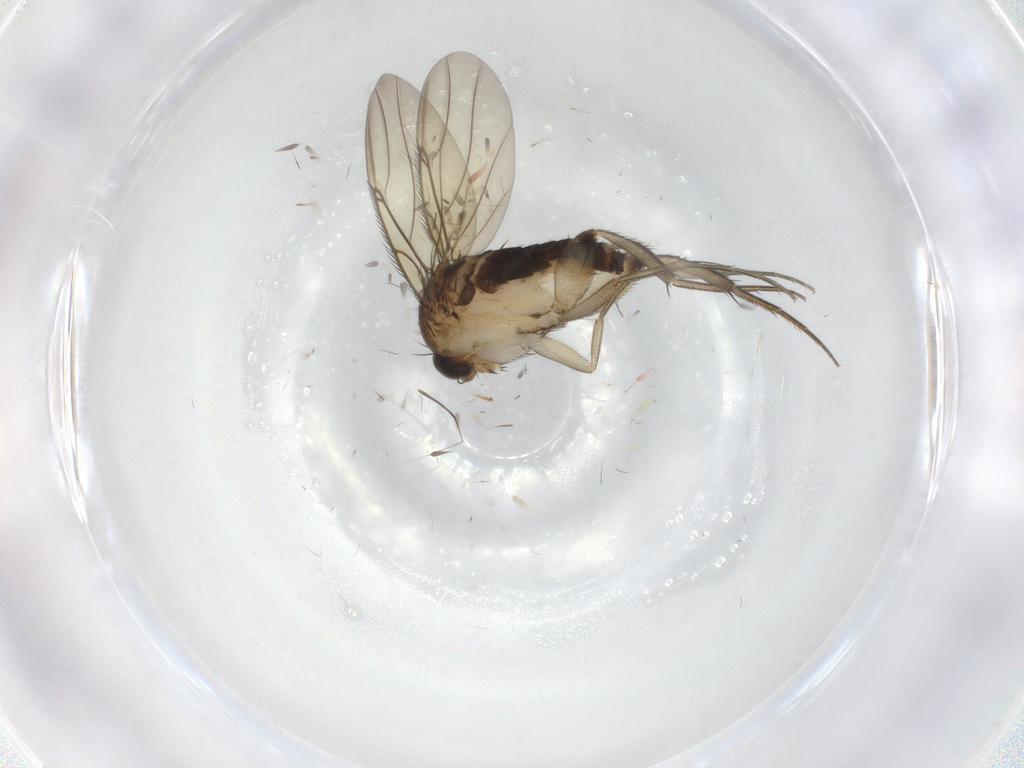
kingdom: Animalia
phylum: Arthropoda
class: Insecta
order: Diptera
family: Phoridae
